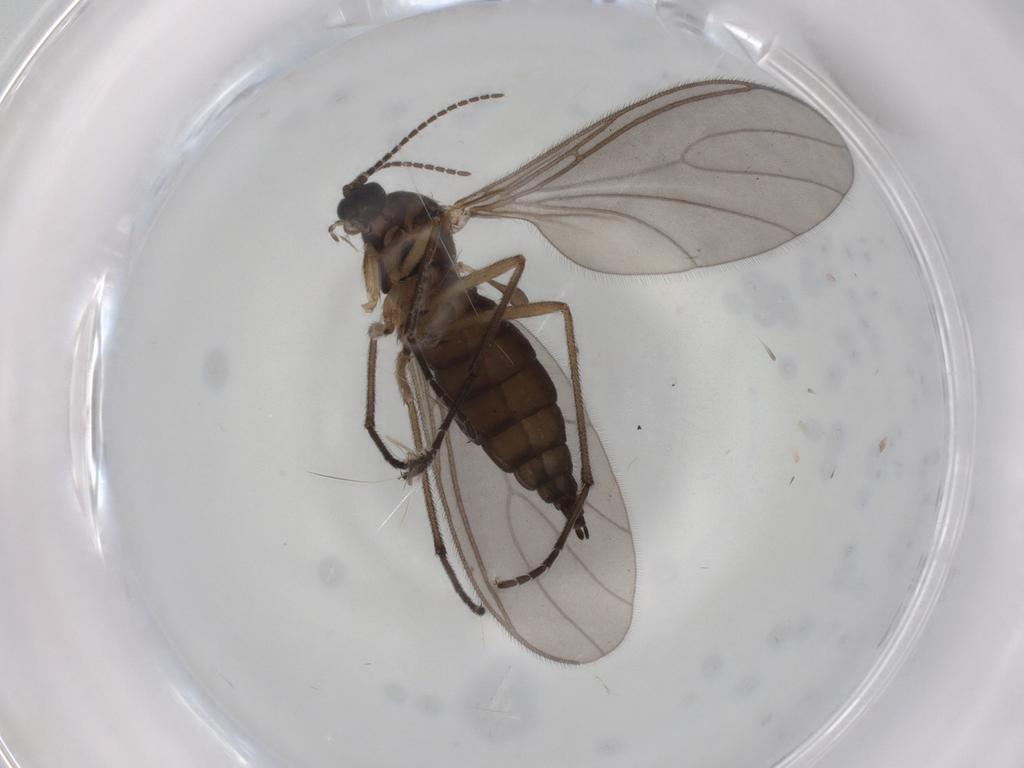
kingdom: Animalia
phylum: Arthropoda
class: Insecta
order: Diptera
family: Sciaridae
